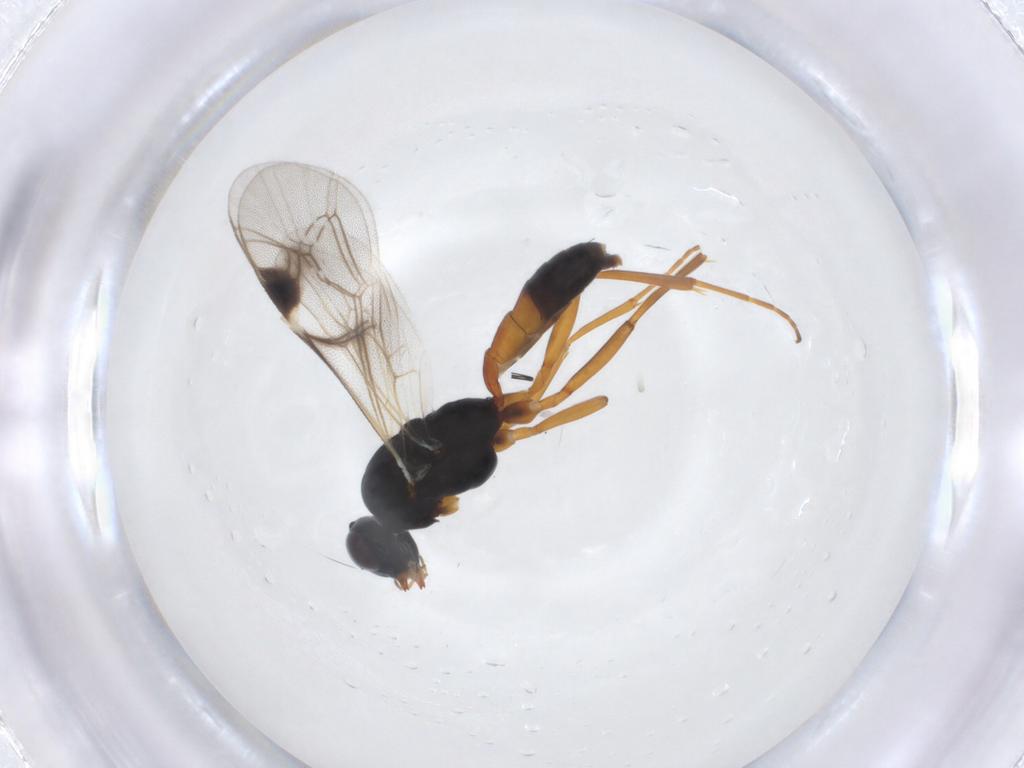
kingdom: Animalia
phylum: Arthropoda
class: Insecta
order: Hymenoptera
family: Ichneumonidae
